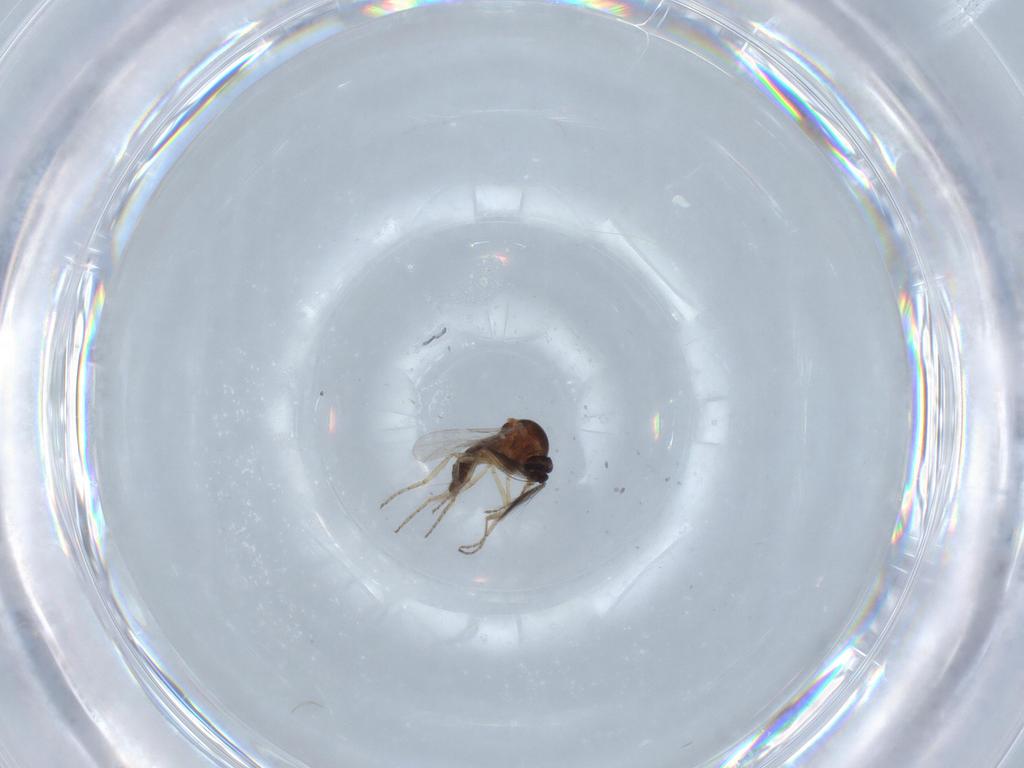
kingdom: Animalia
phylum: Arthropoda
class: Insecta
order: Diptera
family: Ceratopogonidae
